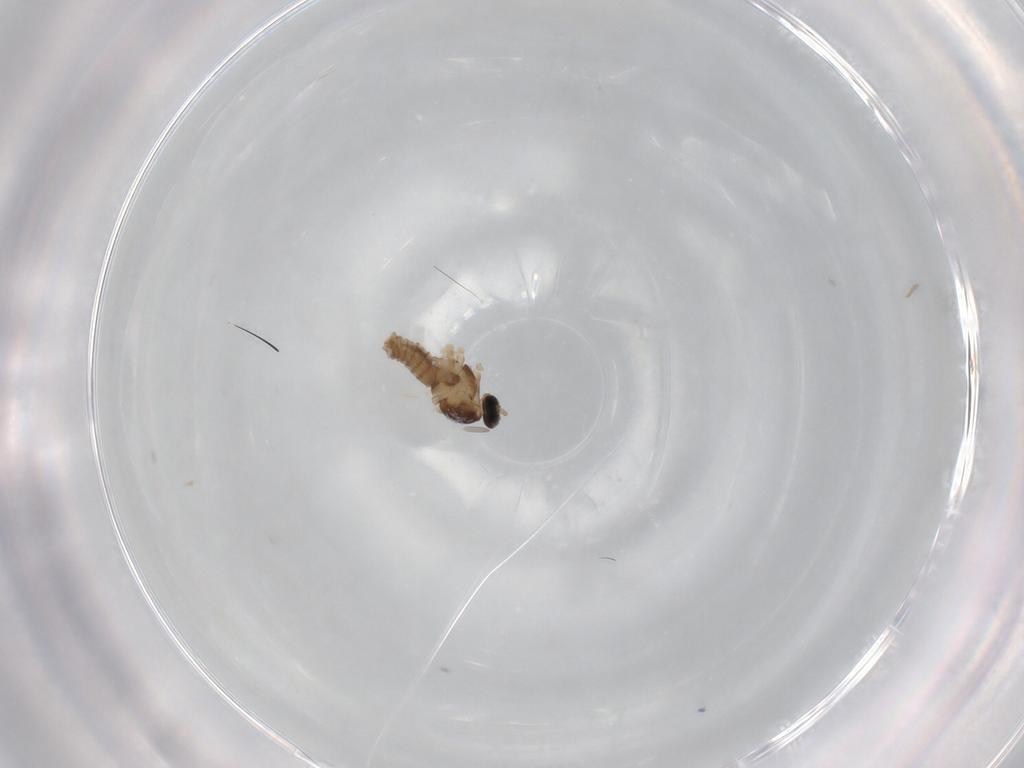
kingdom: Animalia
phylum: Arthropoda
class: Insecta
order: Diptera
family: Cecidomyiidae
